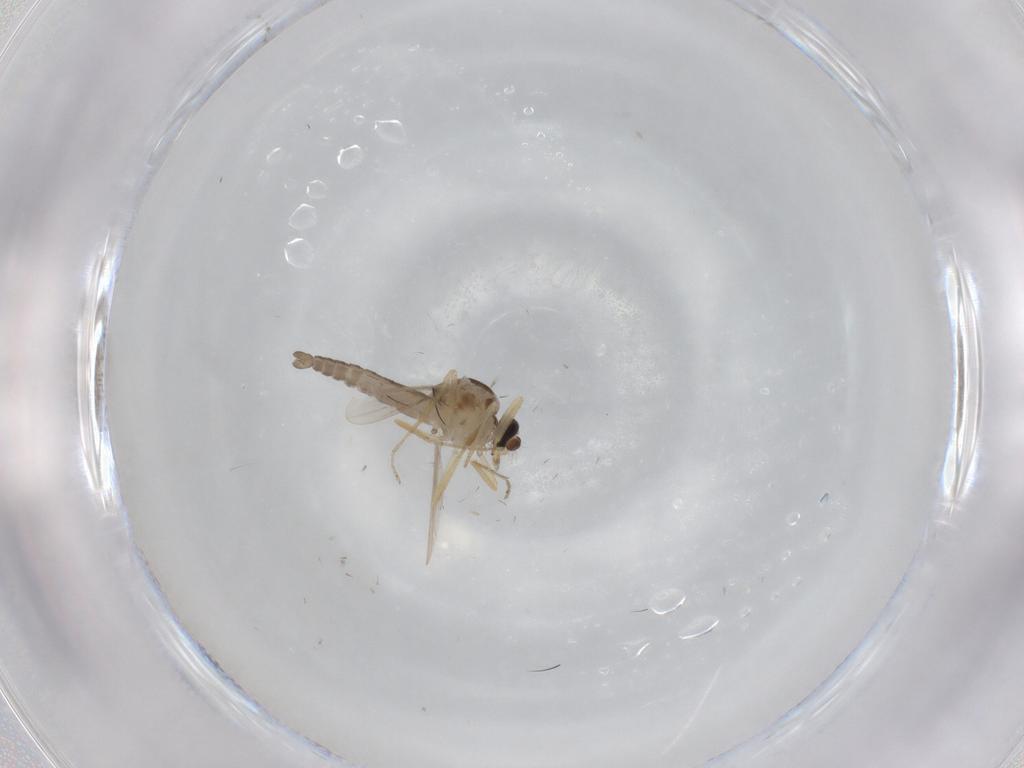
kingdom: Animalia
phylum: Arthropoda
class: Insecta
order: Diptera
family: Ceratopogonidae
